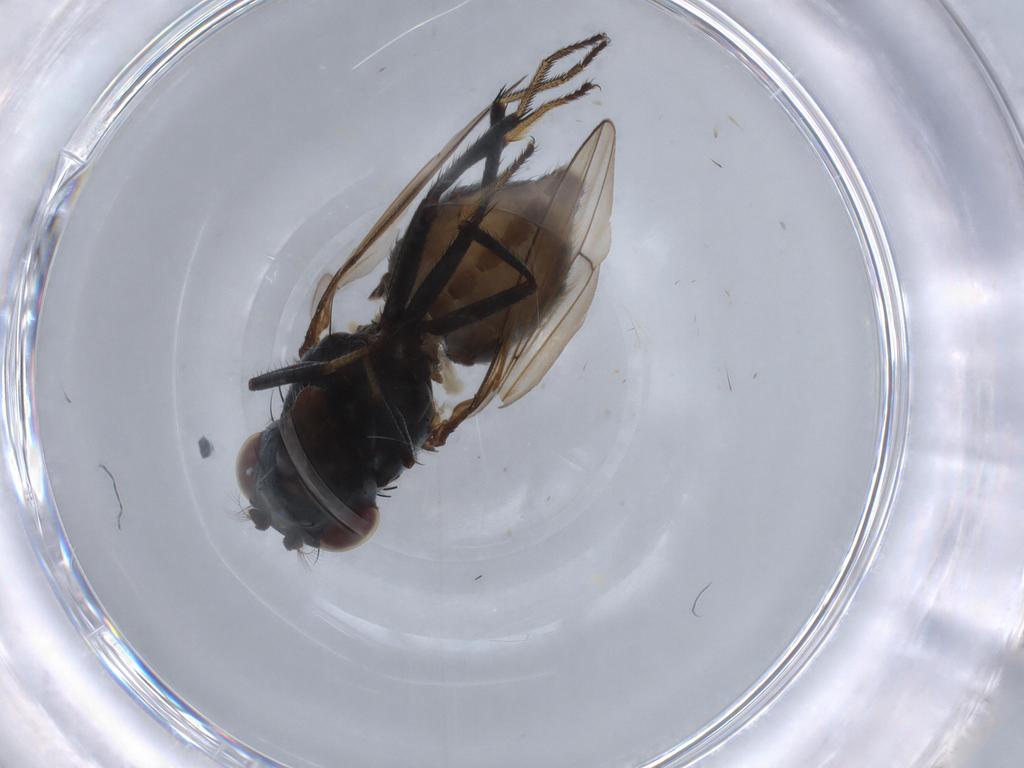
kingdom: Animalia
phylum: Arthropoda
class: Insecta
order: Diptera
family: Ephydridae
